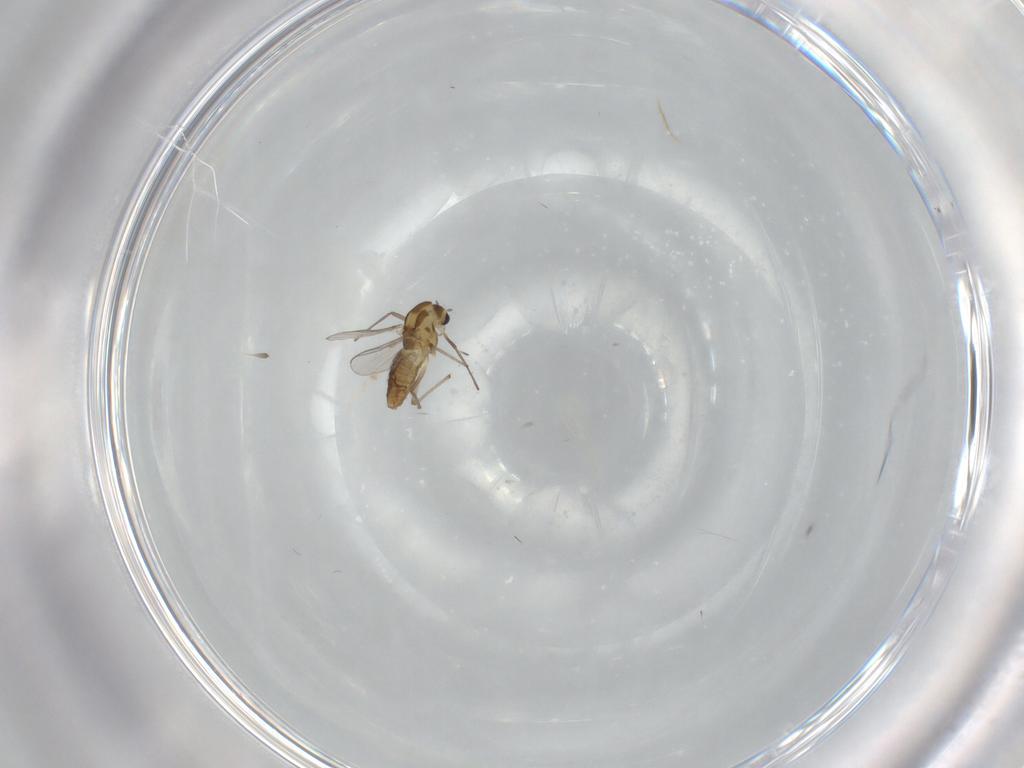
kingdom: Animalia
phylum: Arthropoda
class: Insecta
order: Diptera
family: Chironomidae
